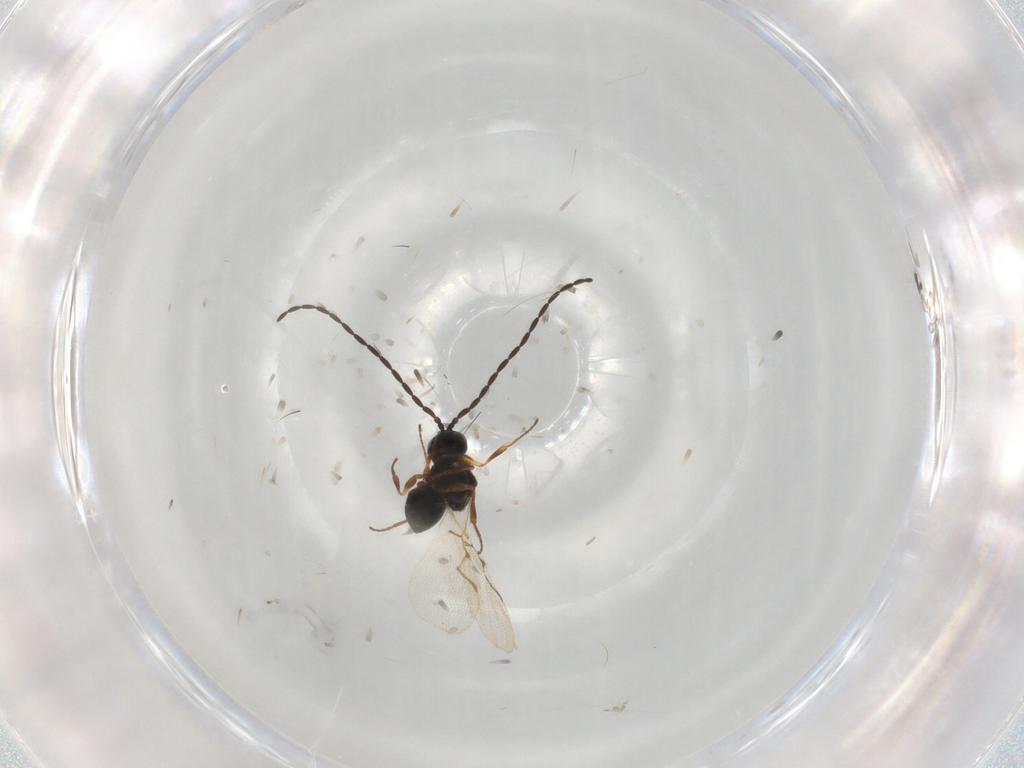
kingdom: Animalia
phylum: Arthropoda
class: Insecta
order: Hymenoptera
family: Figitidae
